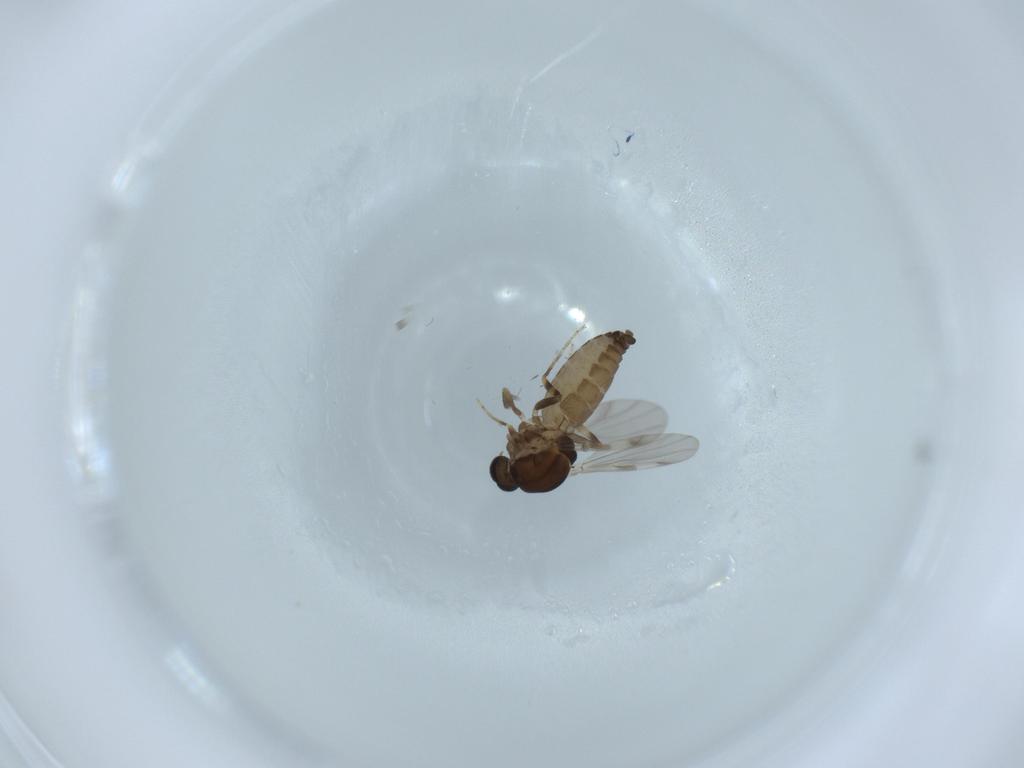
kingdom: Animalia
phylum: Arthropoda
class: Insecta
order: Diptera
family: Ceratopogonidae
